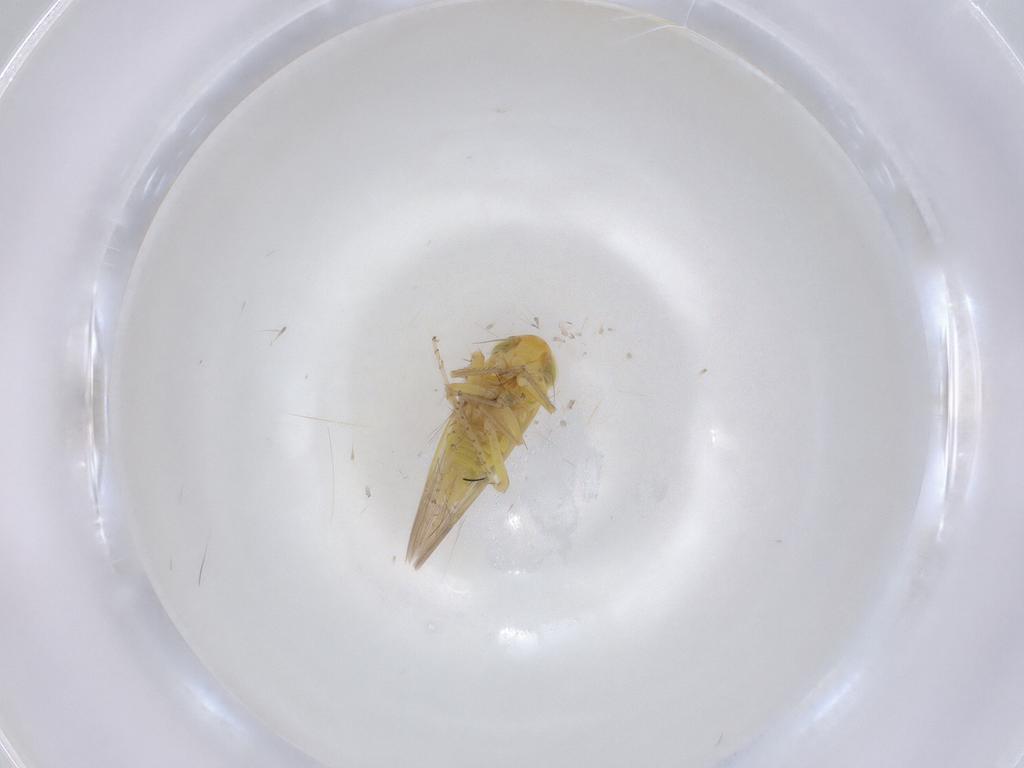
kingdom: Animalia
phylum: Arthropoda
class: Insecta
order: Hemiptera
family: Cicadellidae
